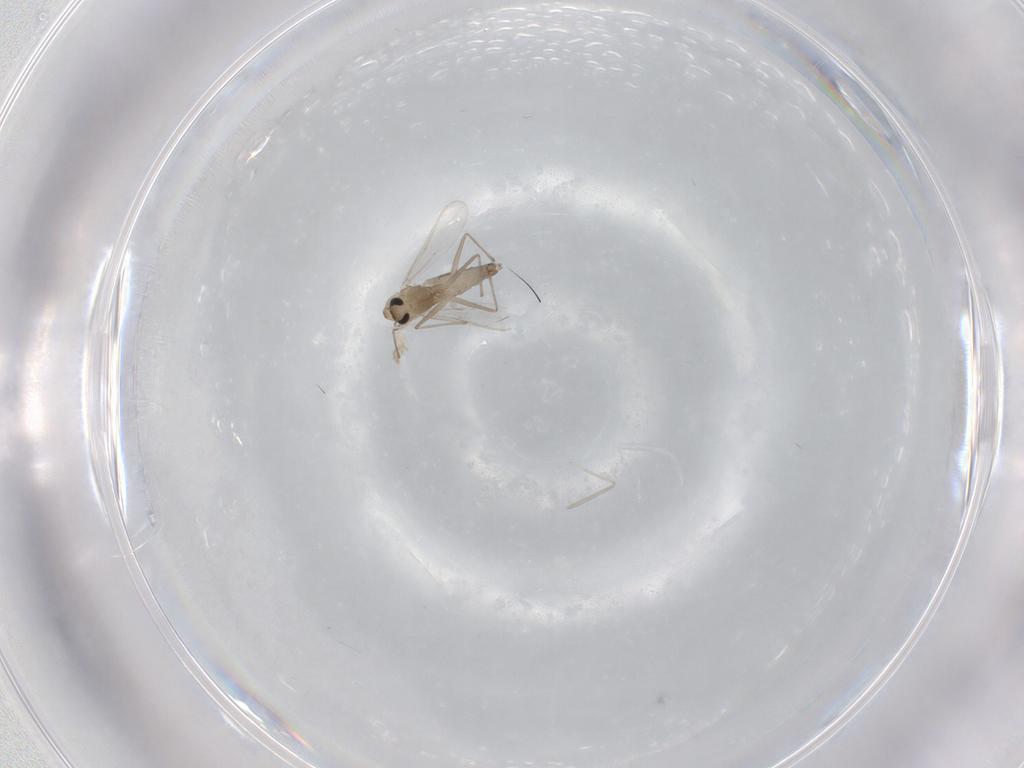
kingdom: Animalia
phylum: Arthropoda
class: Insecta
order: Diptera
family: Chironomidae
